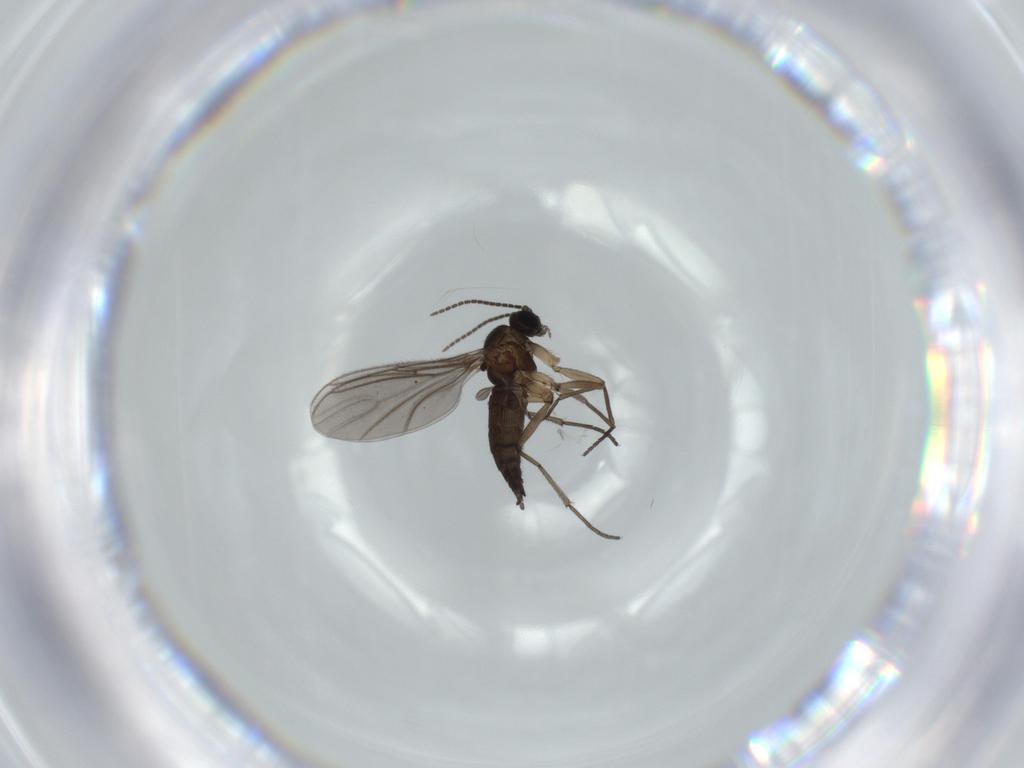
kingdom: Animalia
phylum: Arthropoda
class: Insecta
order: Diptera
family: Sciaridae
